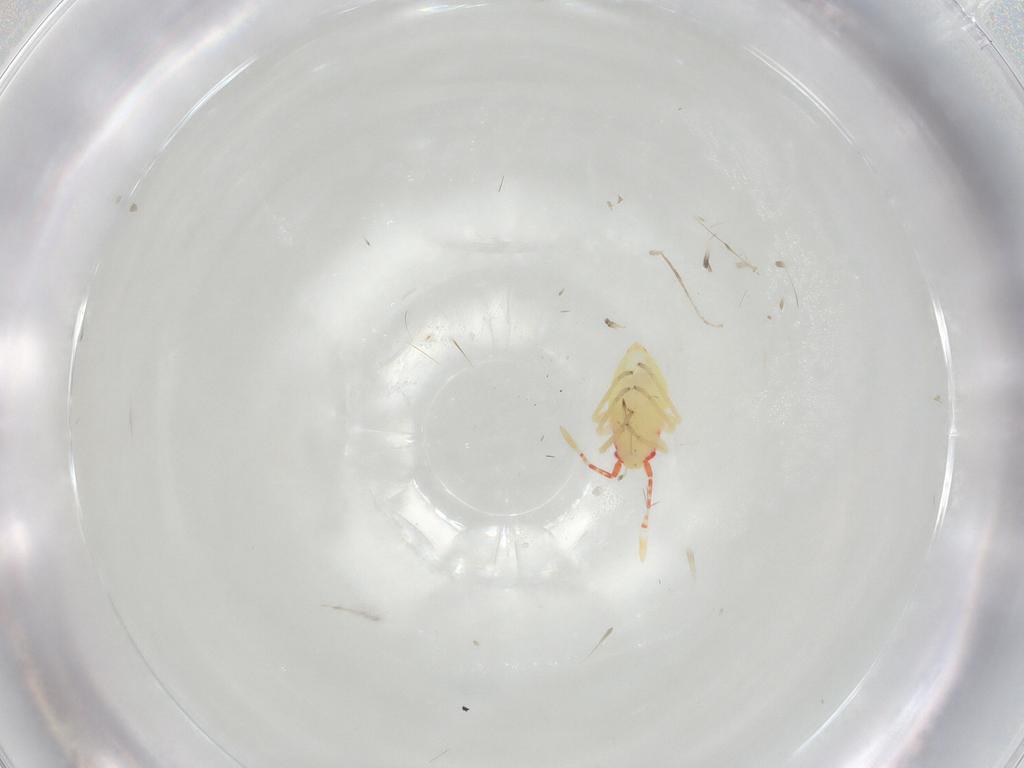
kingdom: Animalia
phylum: Arthropoda
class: Insecta
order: Hemiptera
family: Miridae
